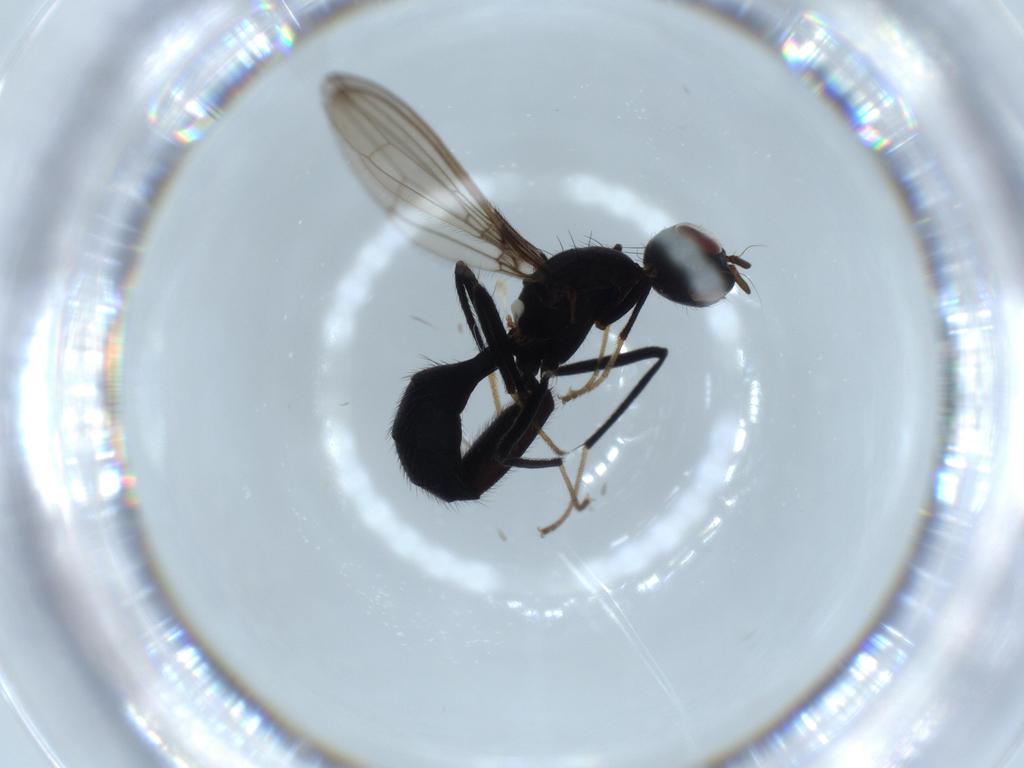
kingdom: Animalia
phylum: Arthropoda
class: Insecta
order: Diptera
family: Richardiidae
